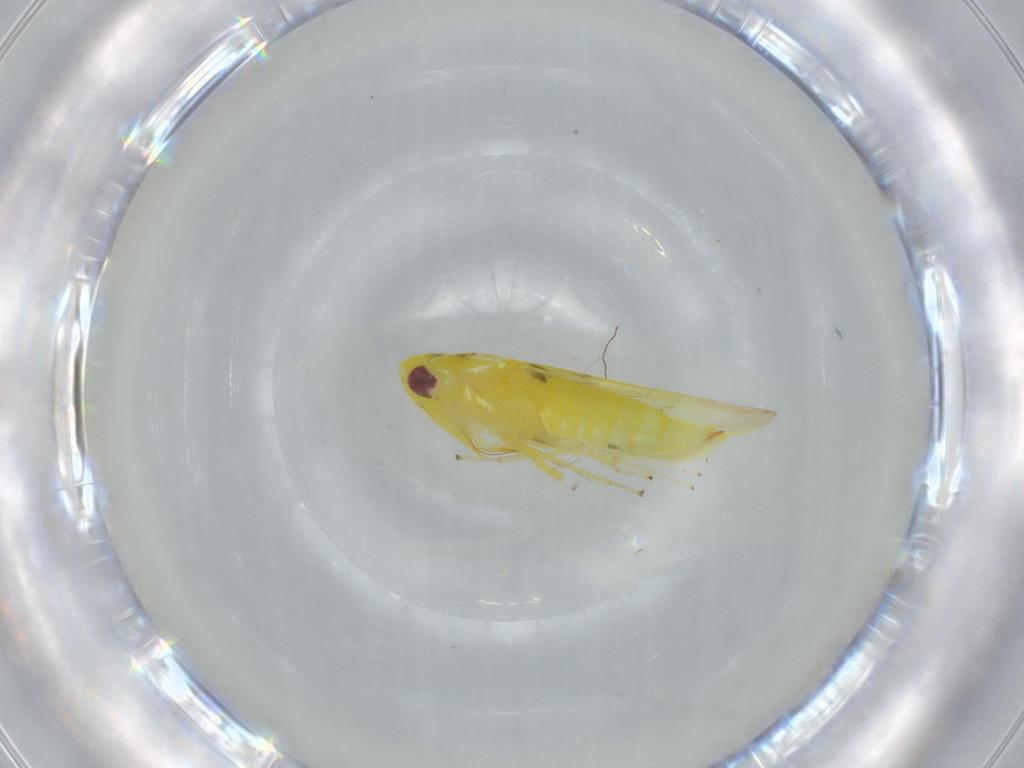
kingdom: Animalia
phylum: Arthropoda
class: Insecta
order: Hemiptera
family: Cicadellidae
